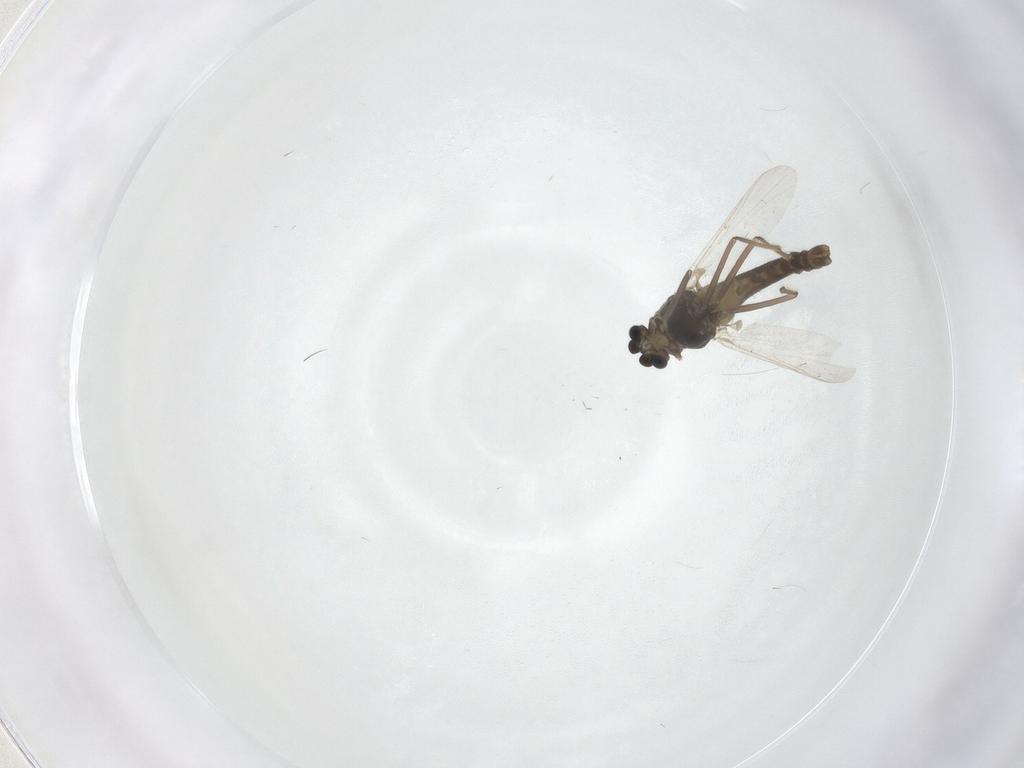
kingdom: Animalia
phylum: Arthropoda
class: Insecta
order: Diptera
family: Chironomidae
